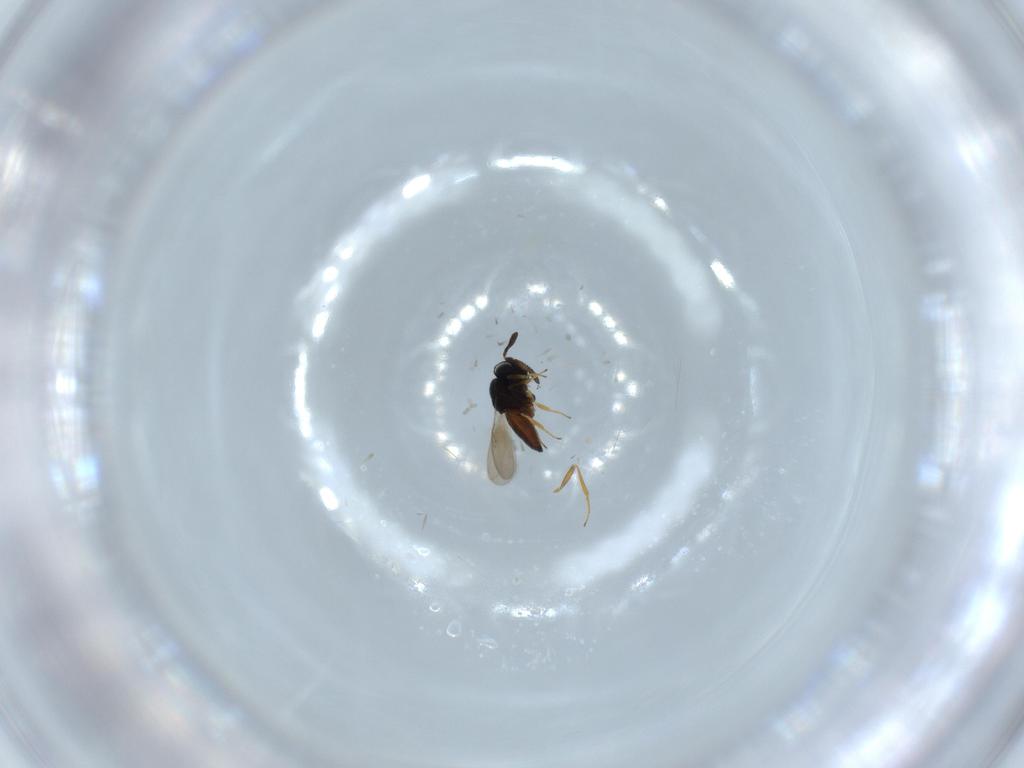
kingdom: Animalia
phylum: Arthropoda
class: Insecta
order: Hymenoptera
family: Scelionidae
